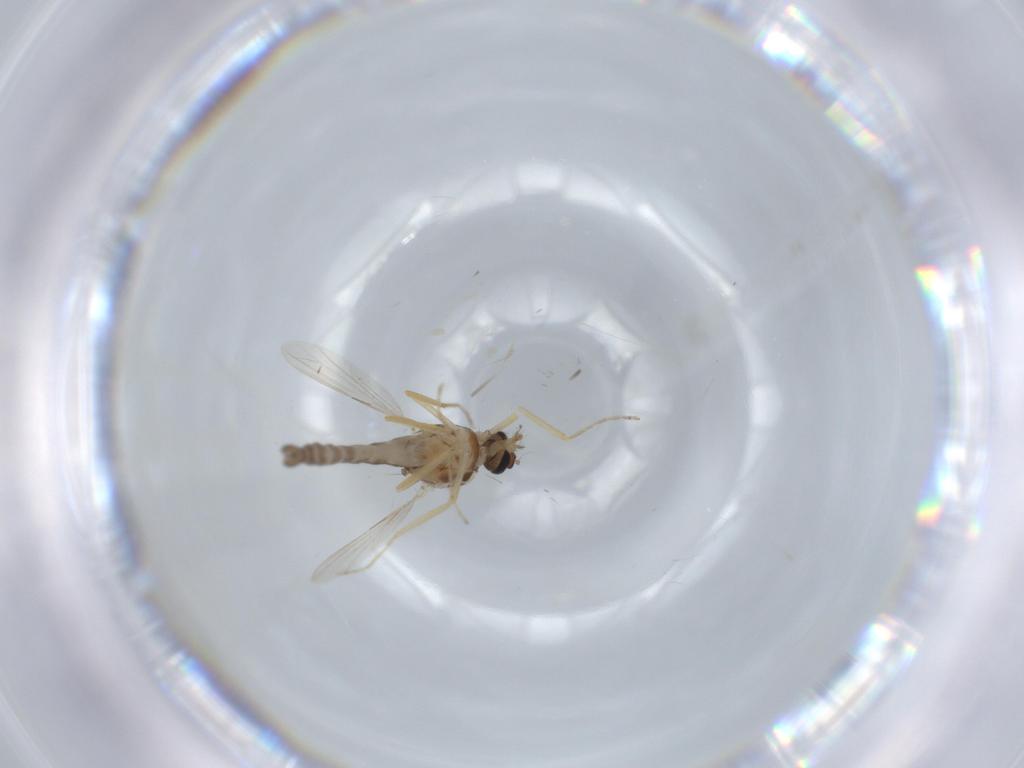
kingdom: Animalia
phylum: Arthropoda
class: Insecta
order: Diptera
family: Ceratopogonidae
